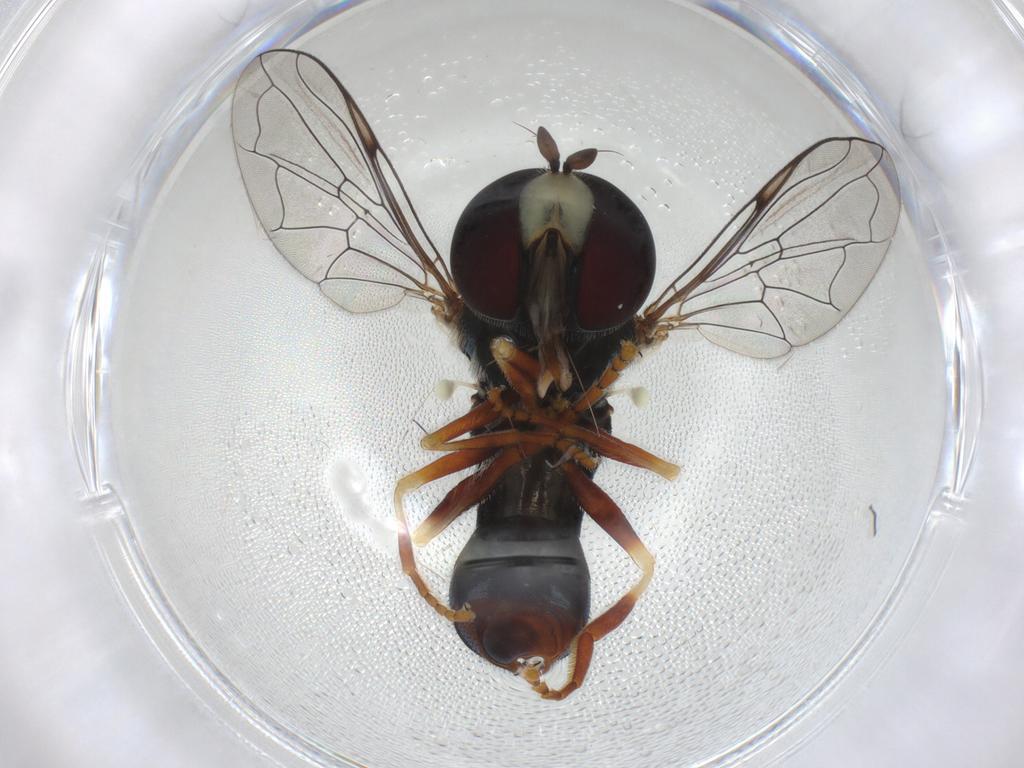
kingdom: Animalia
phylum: Arthropoda
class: Insecta
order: Diptera
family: Syrphidae
